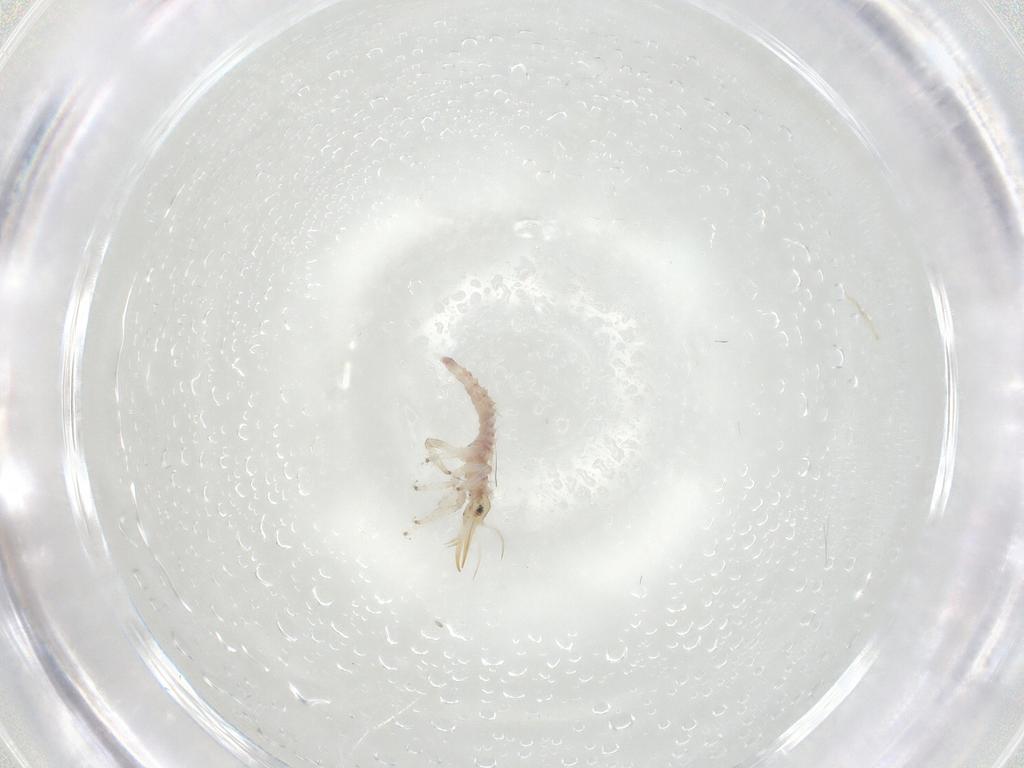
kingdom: Animalia
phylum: Arthropoda
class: Insecta
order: Neuroptera
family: Chrysopidae
